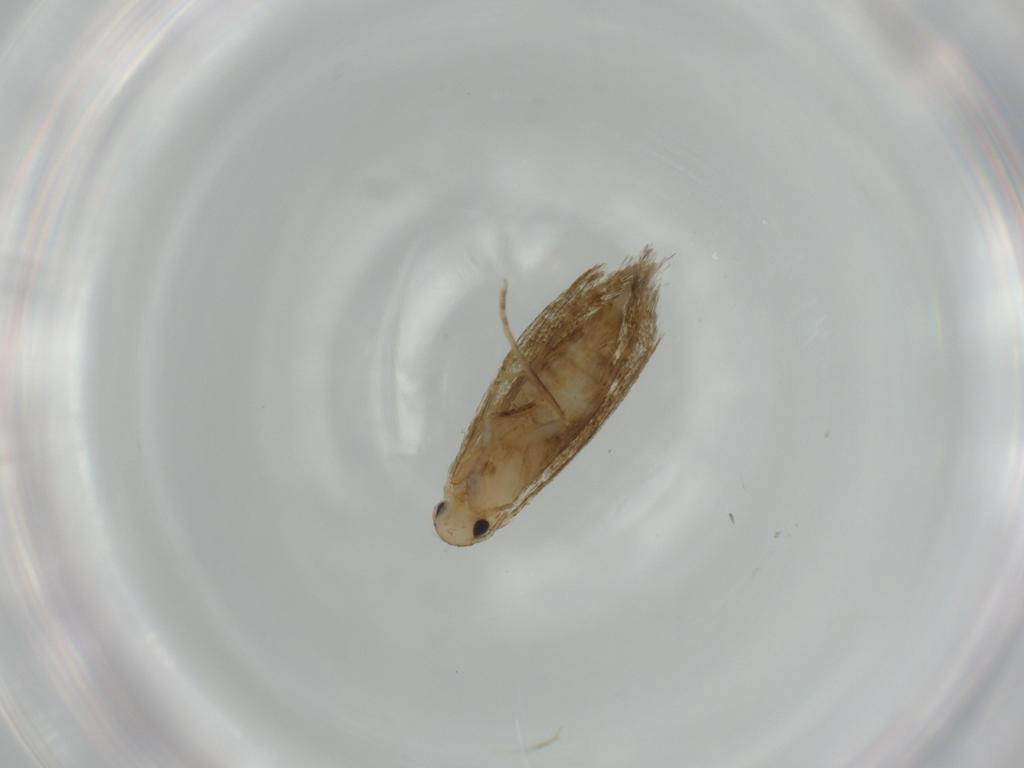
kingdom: Animalia
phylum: Arthropoda
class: Insecta
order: Lepidoptera
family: Tineidae
